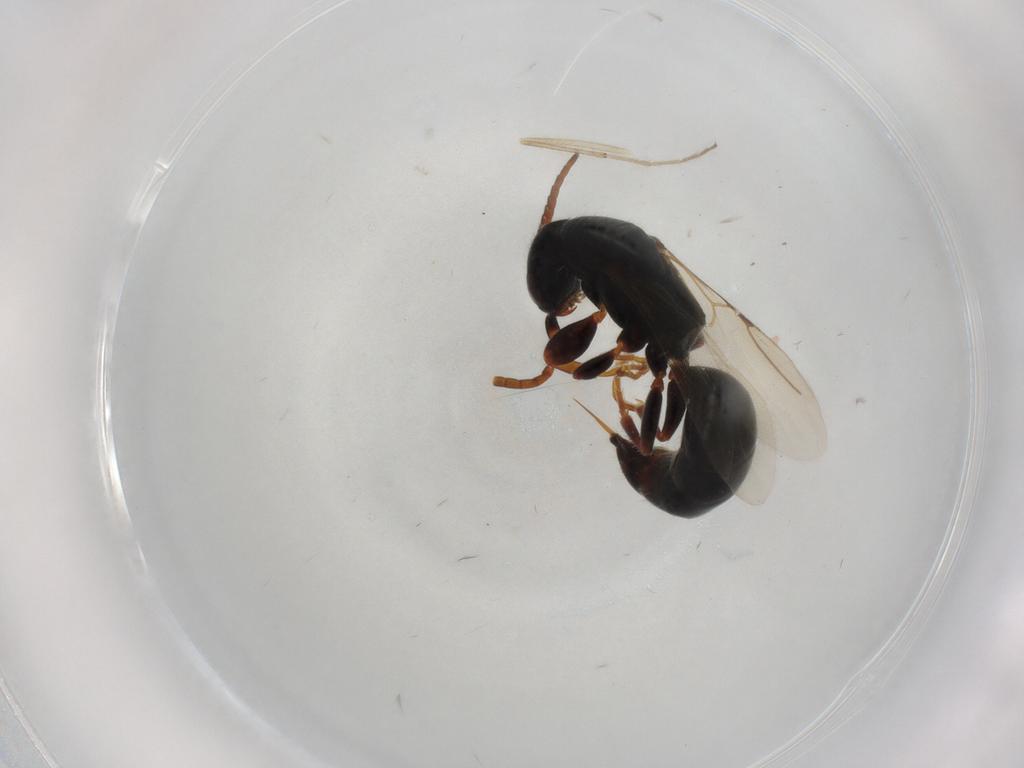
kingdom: Animalia
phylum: Arthropoda
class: Insecta
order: Hymenoptera
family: Bethylidae
